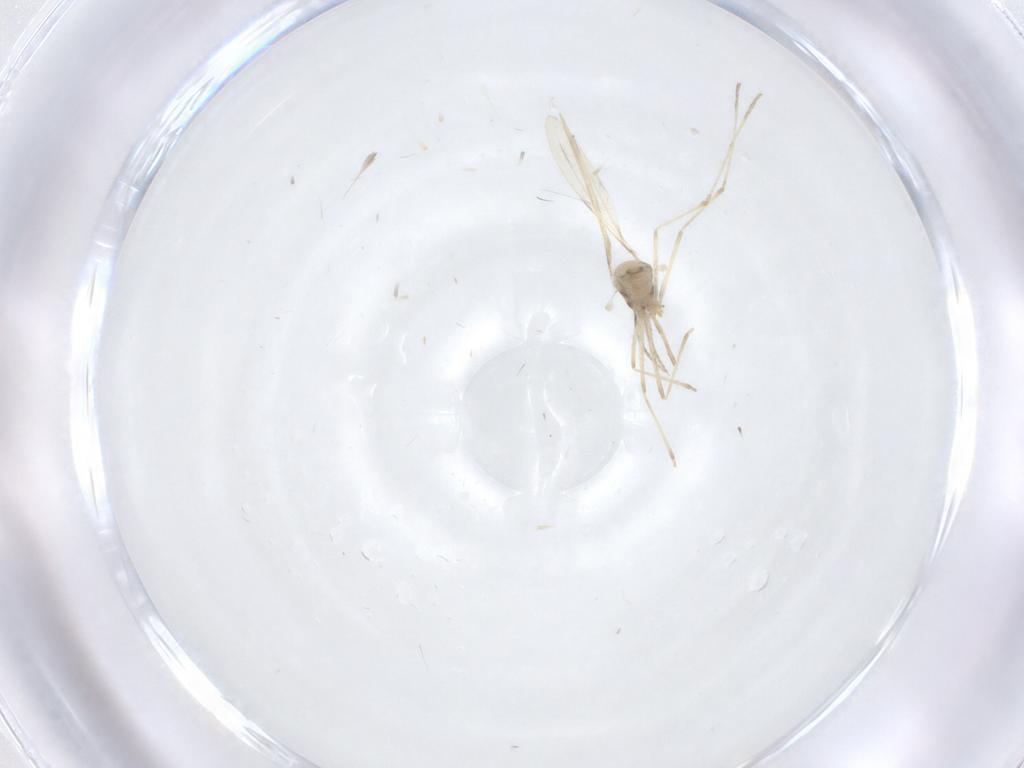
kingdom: Animalia
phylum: Arthropoda
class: Insecta
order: Diptera
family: Cecidomyiidae
